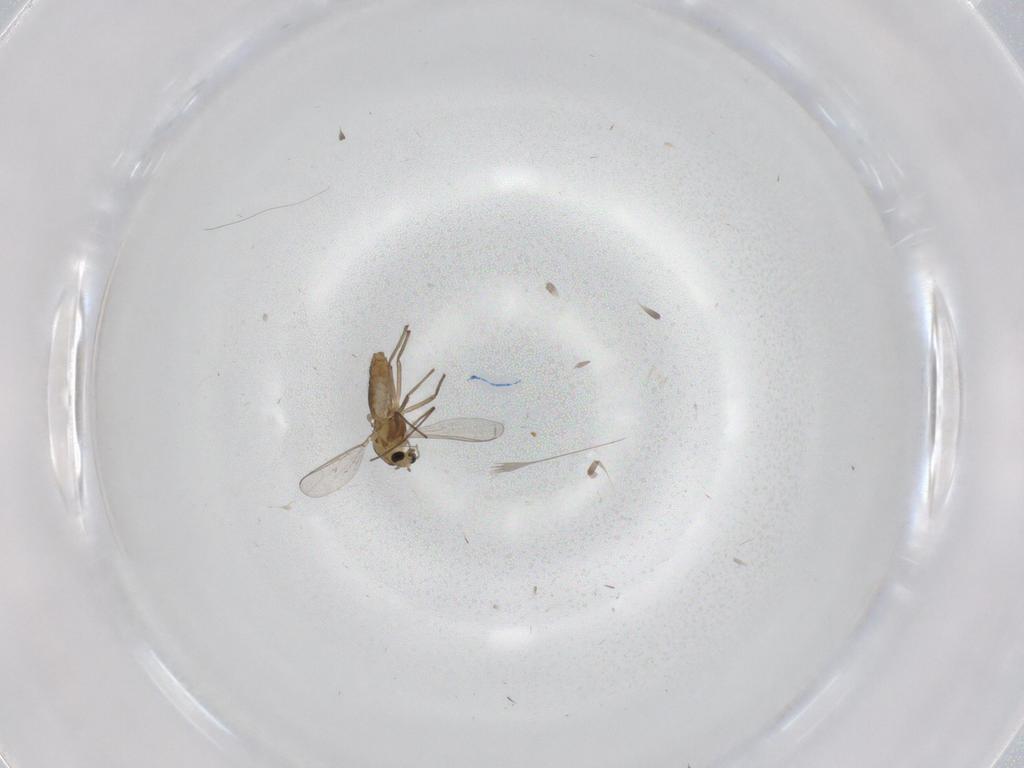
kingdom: Animalia
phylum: Arthropoda
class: Insecta
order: Diptera
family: Chironomidae
